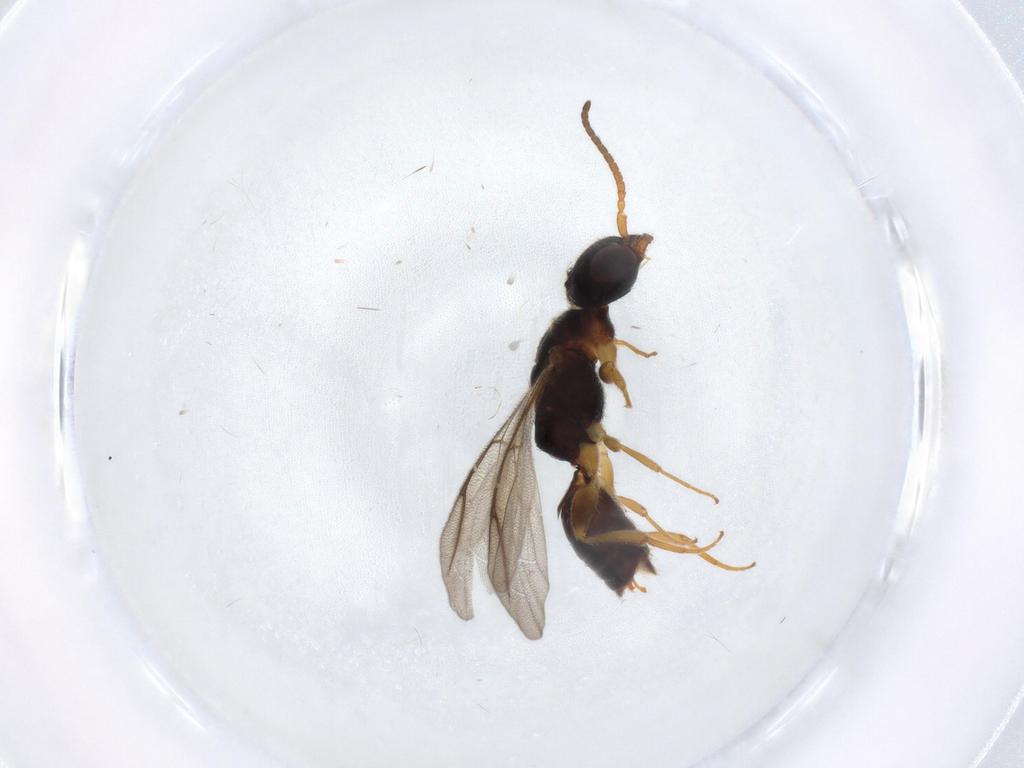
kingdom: Animalia
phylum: Arthropoda
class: Insecta
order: Hymenoptera
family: Bethylidae
